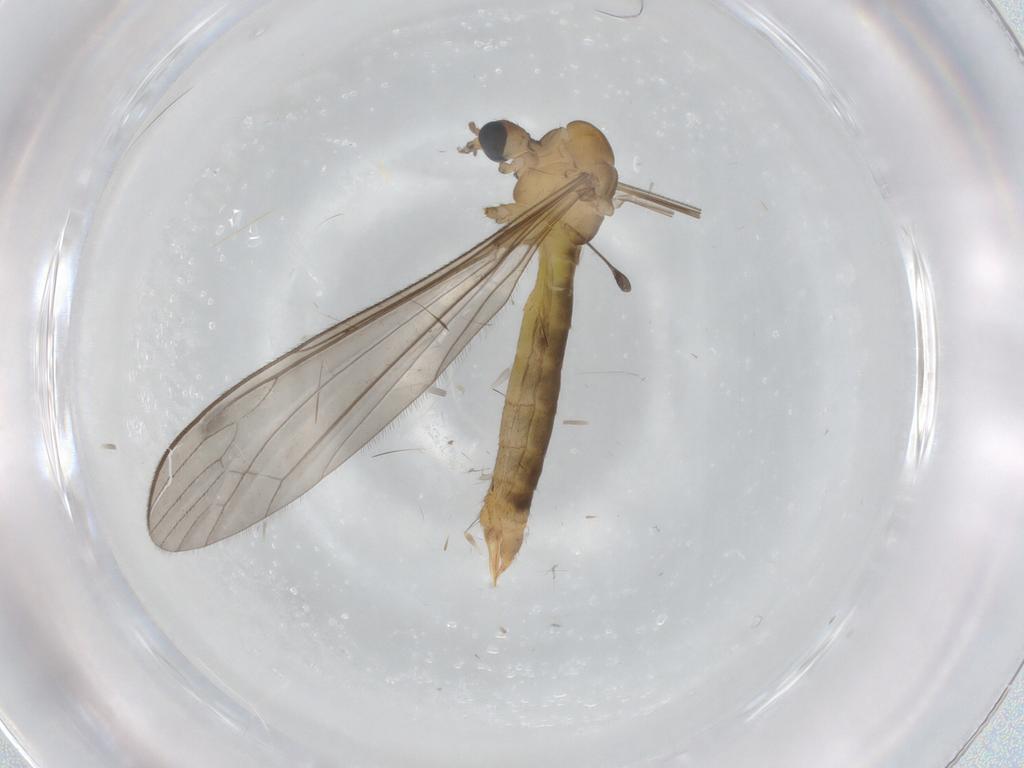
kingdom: Animalia
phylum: Arthropoda
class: Insecta
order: Diptera
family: Limoniidae
